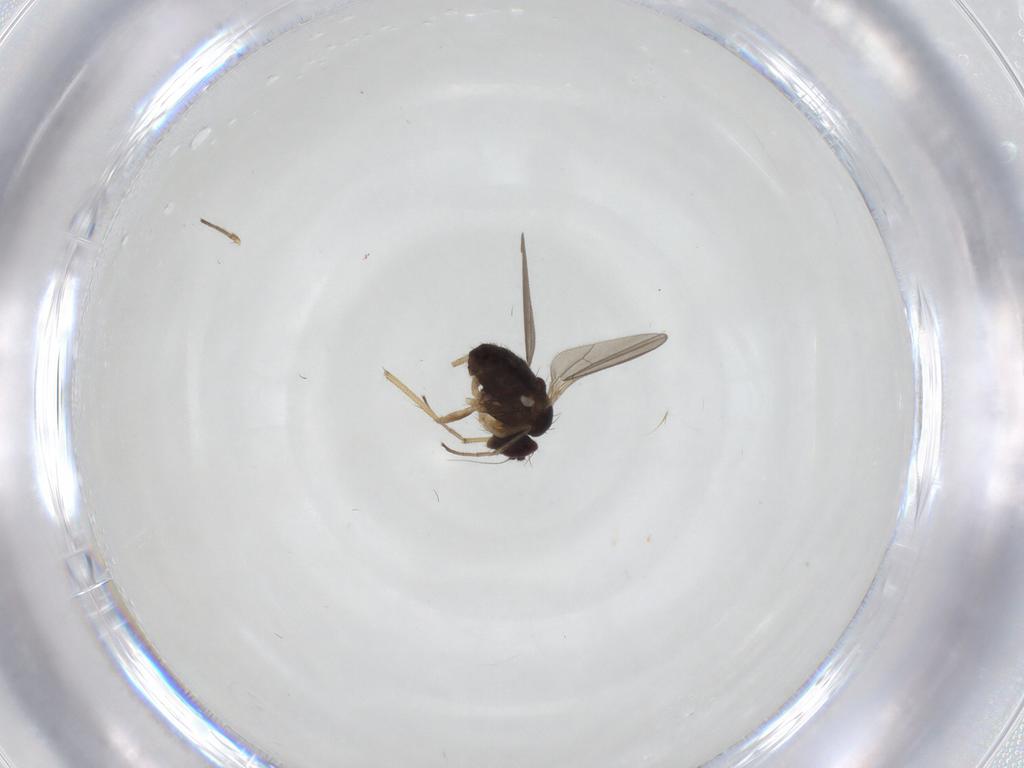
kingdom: Animalia
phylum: Arthropoda
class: Insecta
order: Diptera
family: Dolichopodidae
